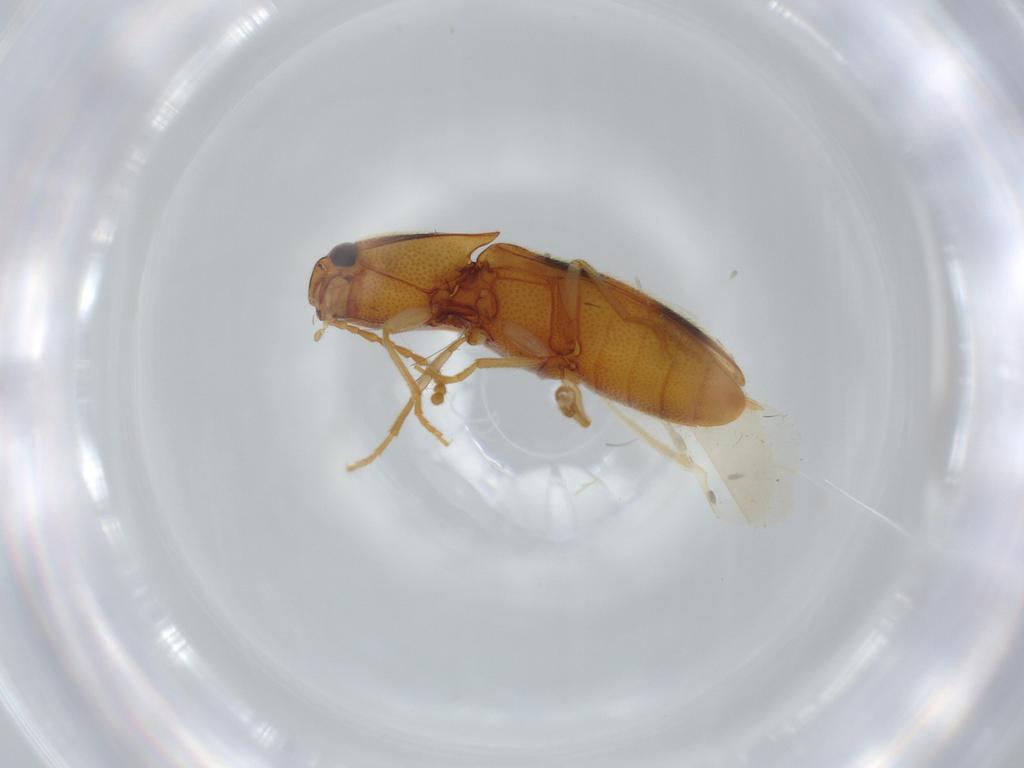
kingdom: Animalia
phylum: Arthropoda
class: Insecta
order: Coleoptera
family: Elateridae
